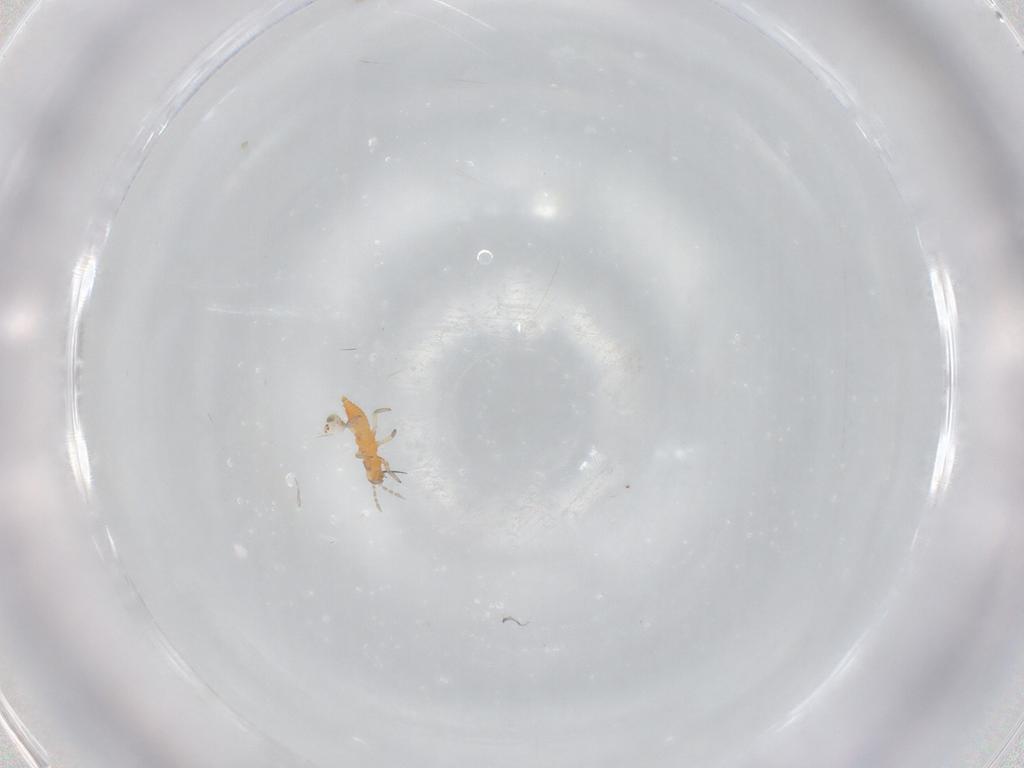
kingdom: Animalia
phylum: Arthropoda
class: Insecta
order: Thysanoptera
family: Aeolothripidae
